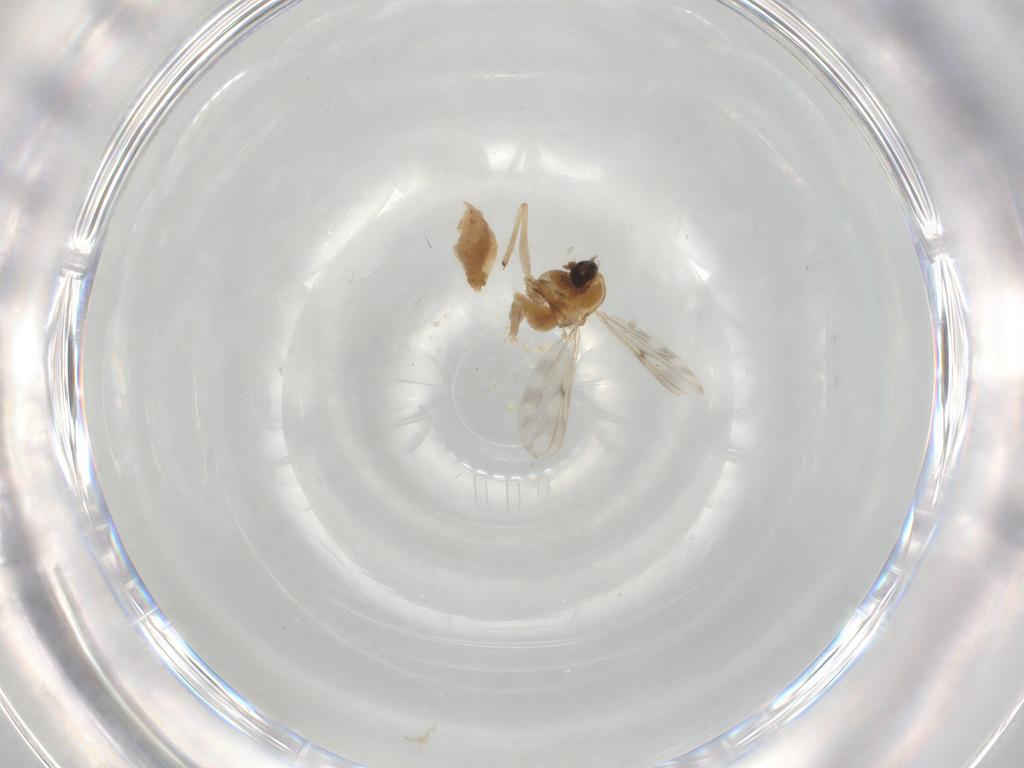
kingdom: Animalia
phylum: Arthropoda
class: Insecta
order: Diptera
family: Chironomidae
